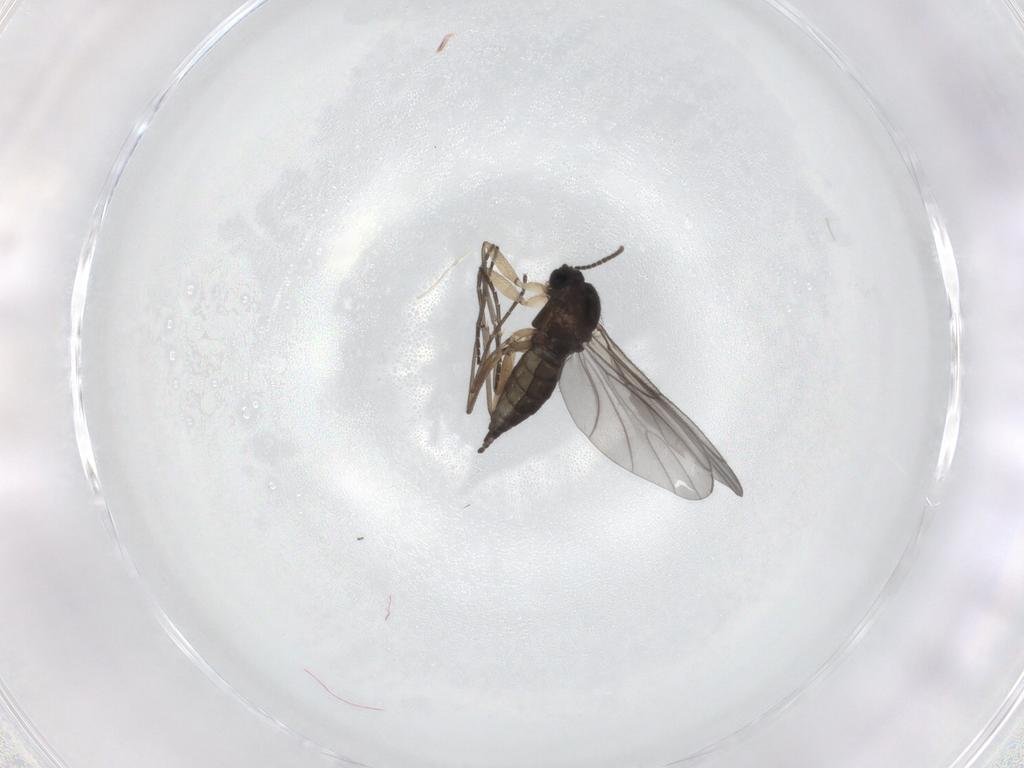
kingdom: Animalia
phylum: Arthropoda
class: Insecta
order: Diptera
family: Sciaridae
